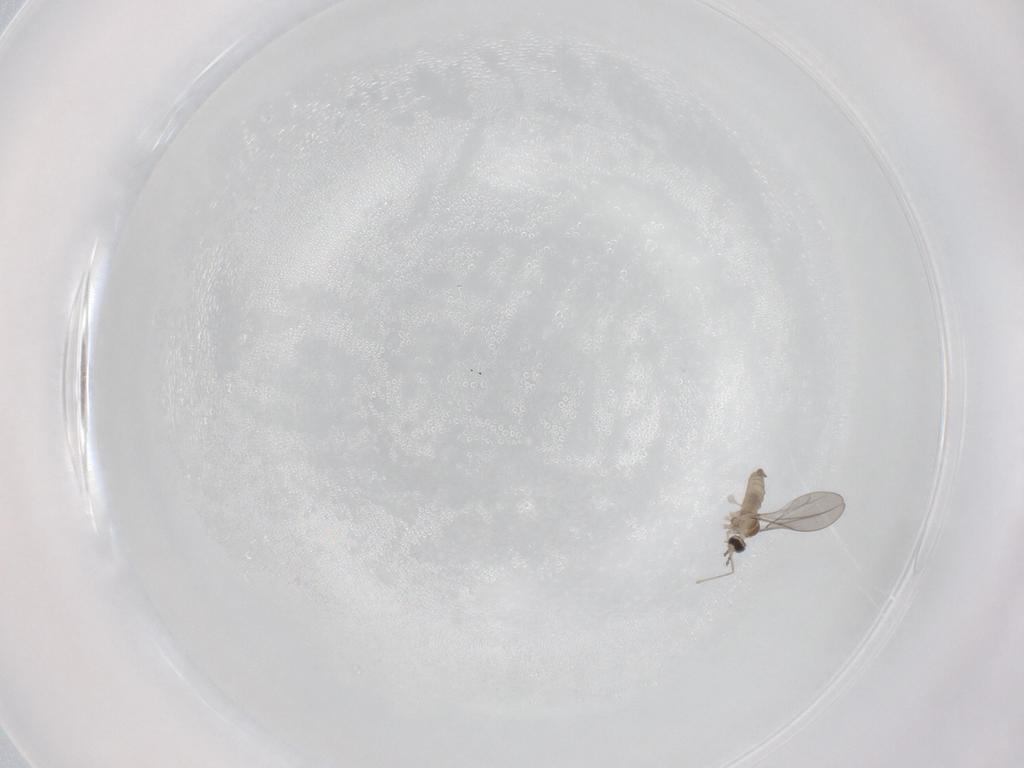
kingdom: Animalia
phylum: Arthropoda
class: Insecta
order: Diptera
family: Cecidomyiidae
